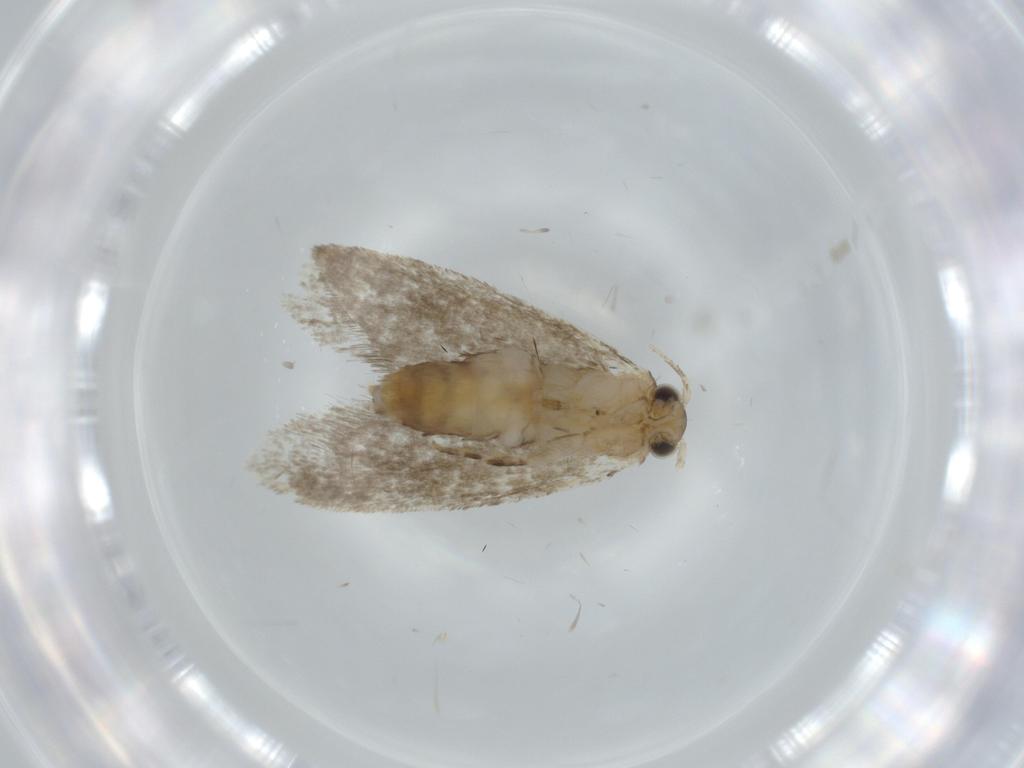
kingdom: Animalia
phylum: Arthropoda
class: Insecta
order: Lepidoptera
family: Tineidae
